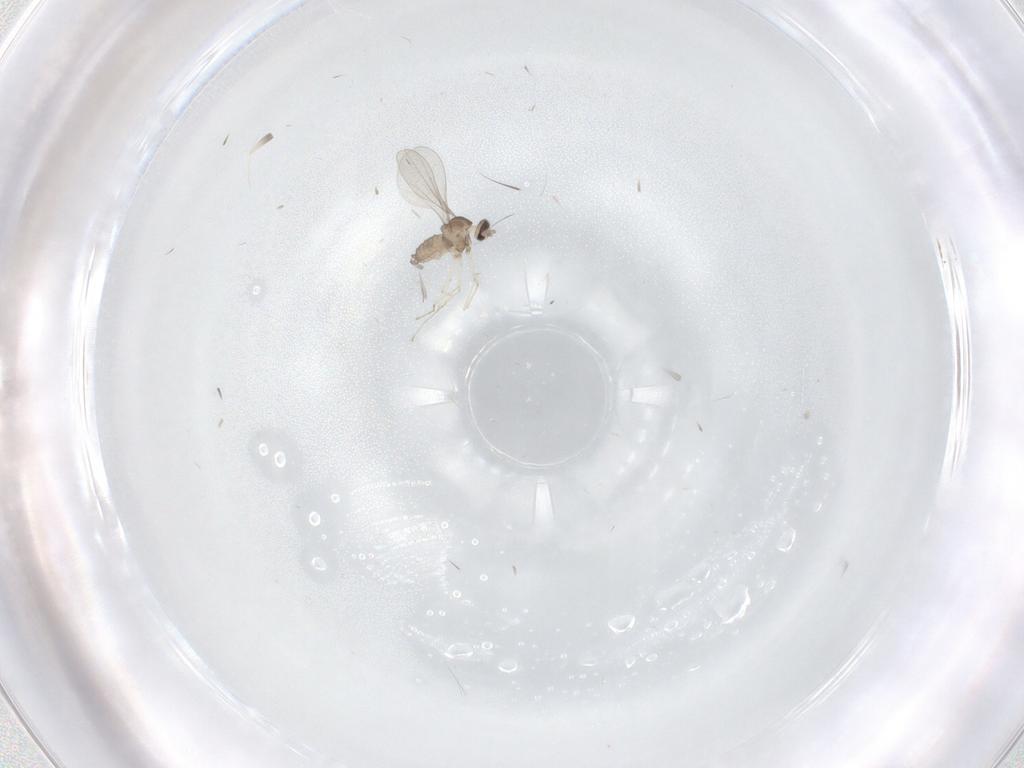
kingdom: Animalia
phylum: Arthropoda
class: Insecta
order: Diptera
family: Cecidomyiidae
